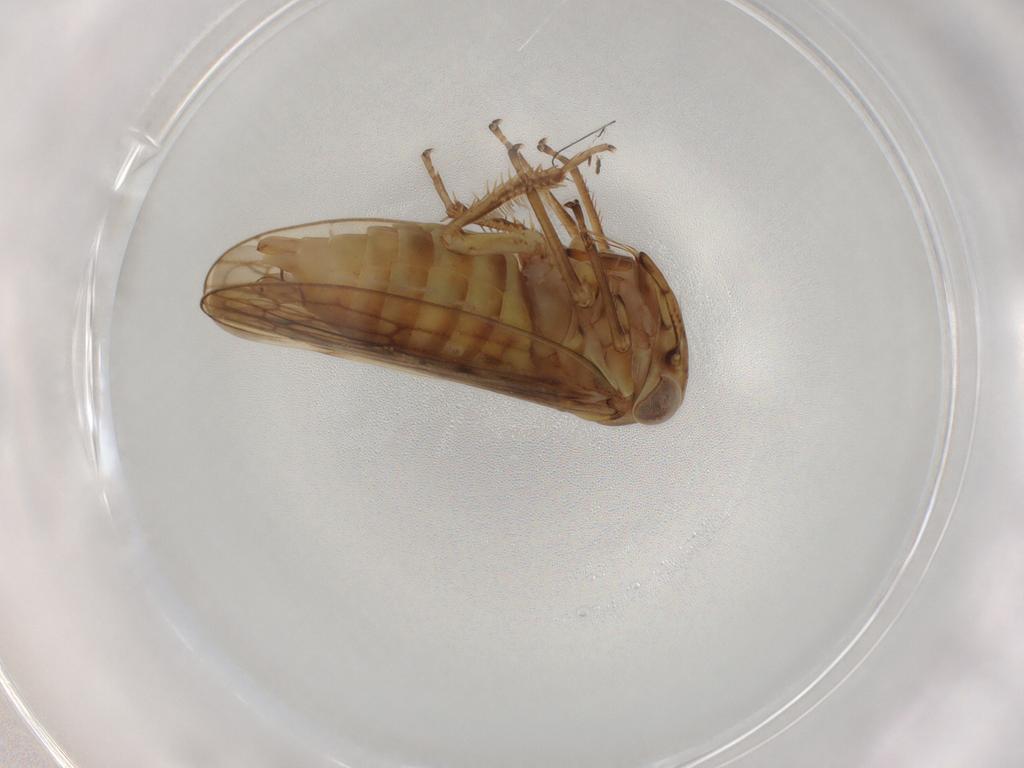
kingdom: Animalia
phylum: Arthropoda
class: Insecta
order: Hemiptera
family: Cicadellidae
